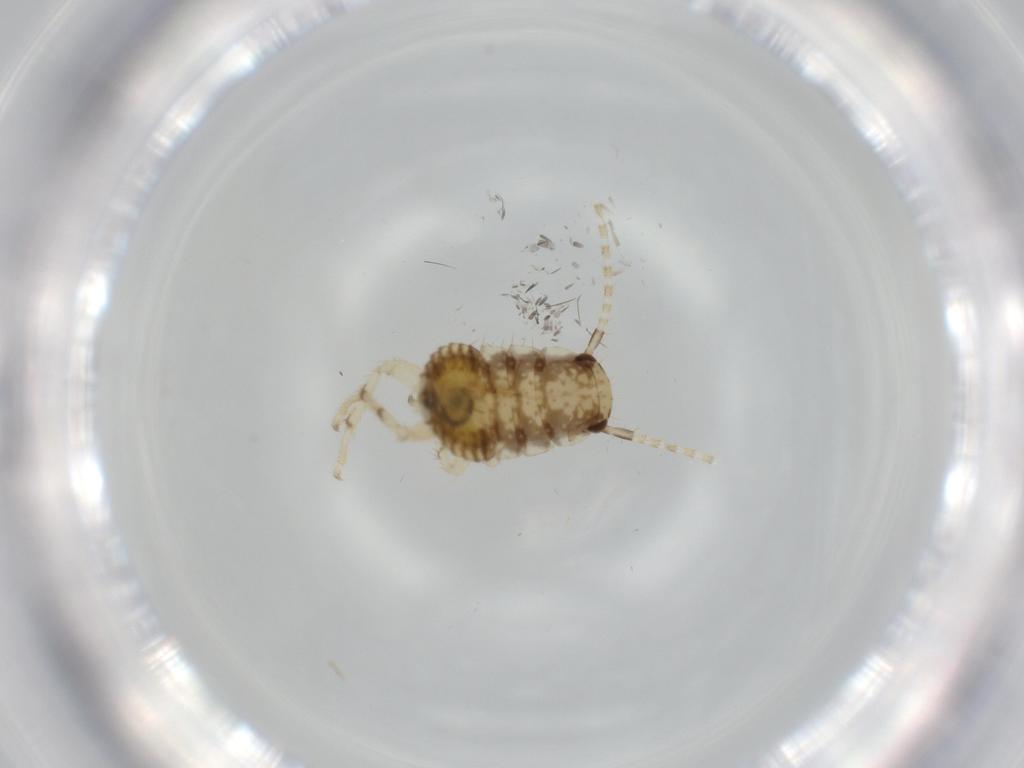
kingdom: Animalia
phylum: Arthropoda
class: Insecta
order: Blattodea
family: Ectobiidae
